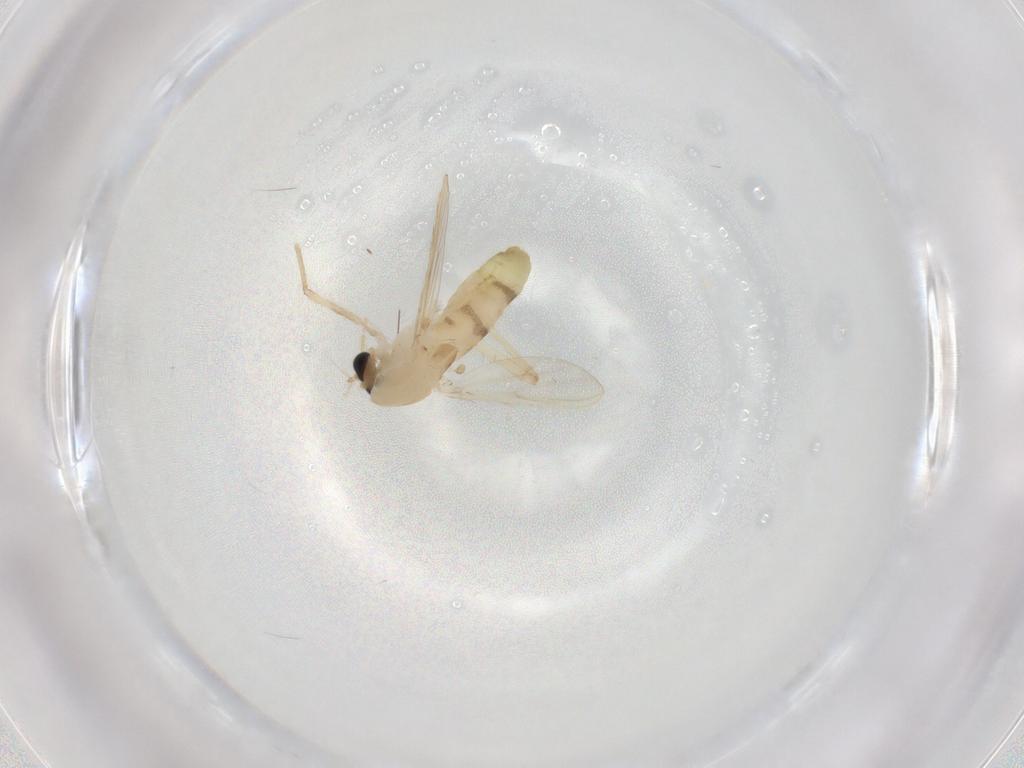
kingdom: Animalia
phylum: Arthropoda
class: Insecta
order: Diptera
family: Chironomidae
